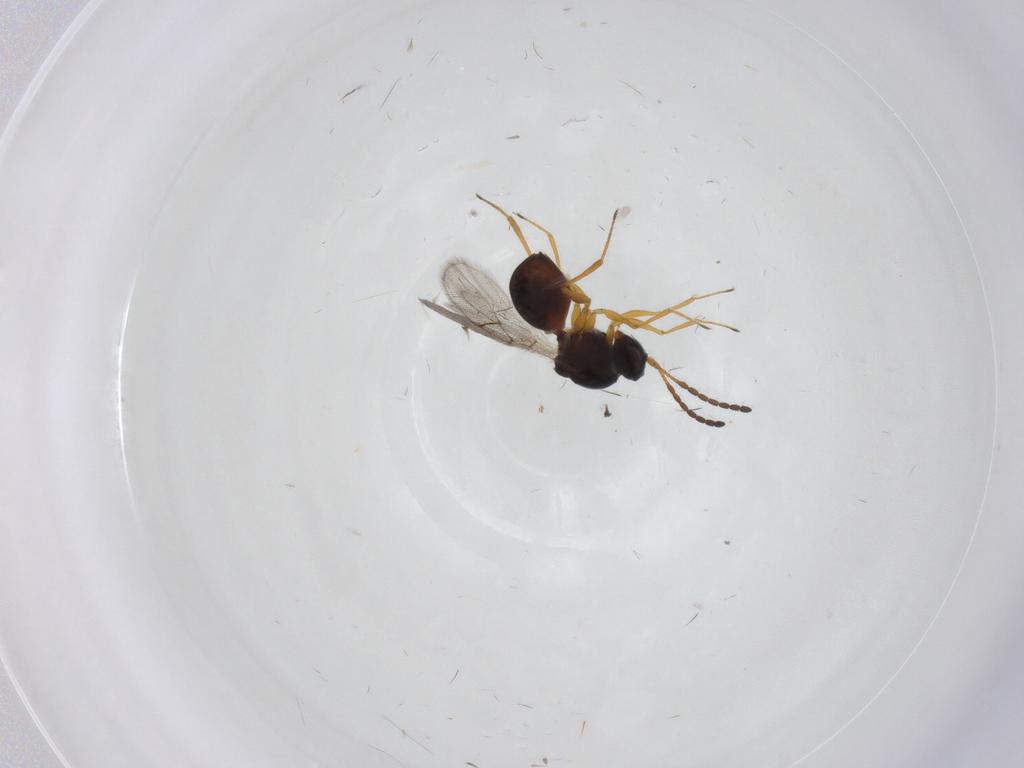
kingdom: Animalia
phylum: Arthropoda
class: Insecta
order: Hymenoptera
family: Figitidae
